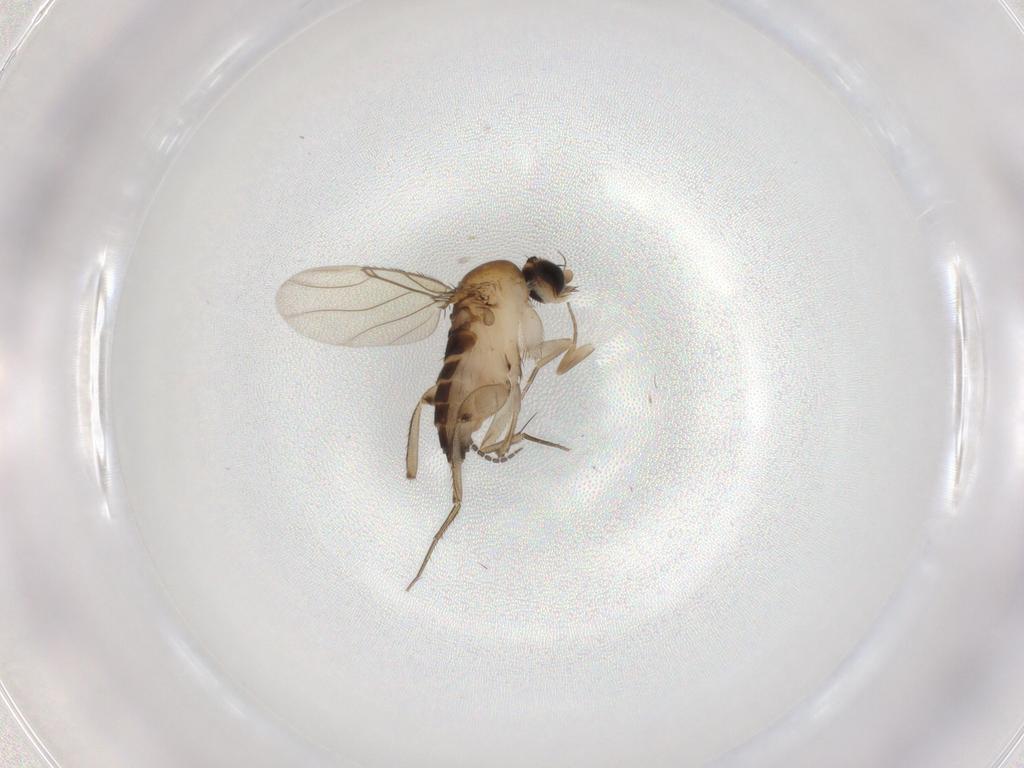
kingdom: Animalia
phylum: Arthropoda
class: Insecta
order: Diptera
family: Phoridae
